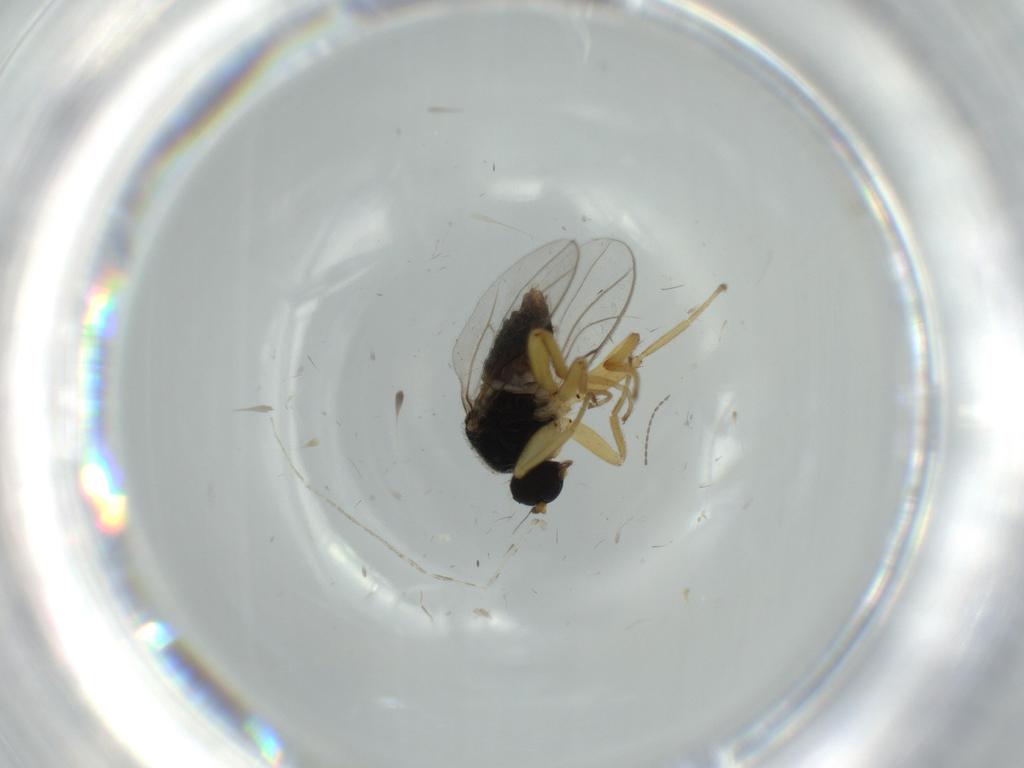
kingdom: Animalia
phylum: Arthropoda
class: Insecta
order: Diptera
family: Hybotidae
